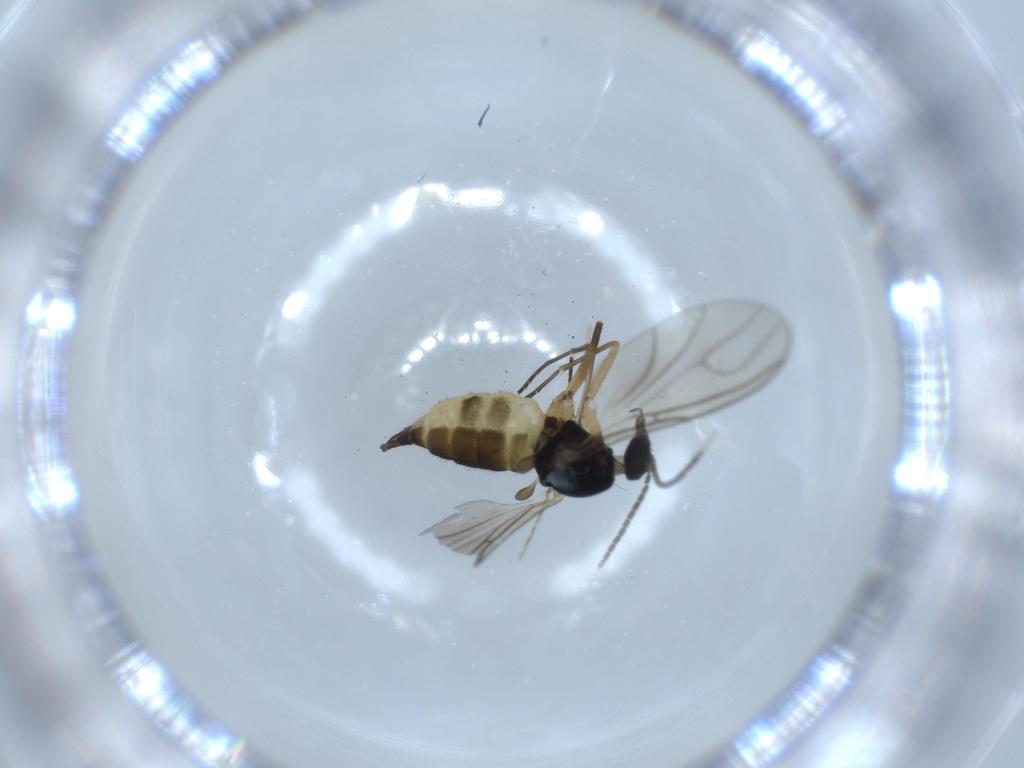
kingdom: Animalia
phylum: Arthropoda
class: Insecta
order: Diptera
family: Sciaridae
